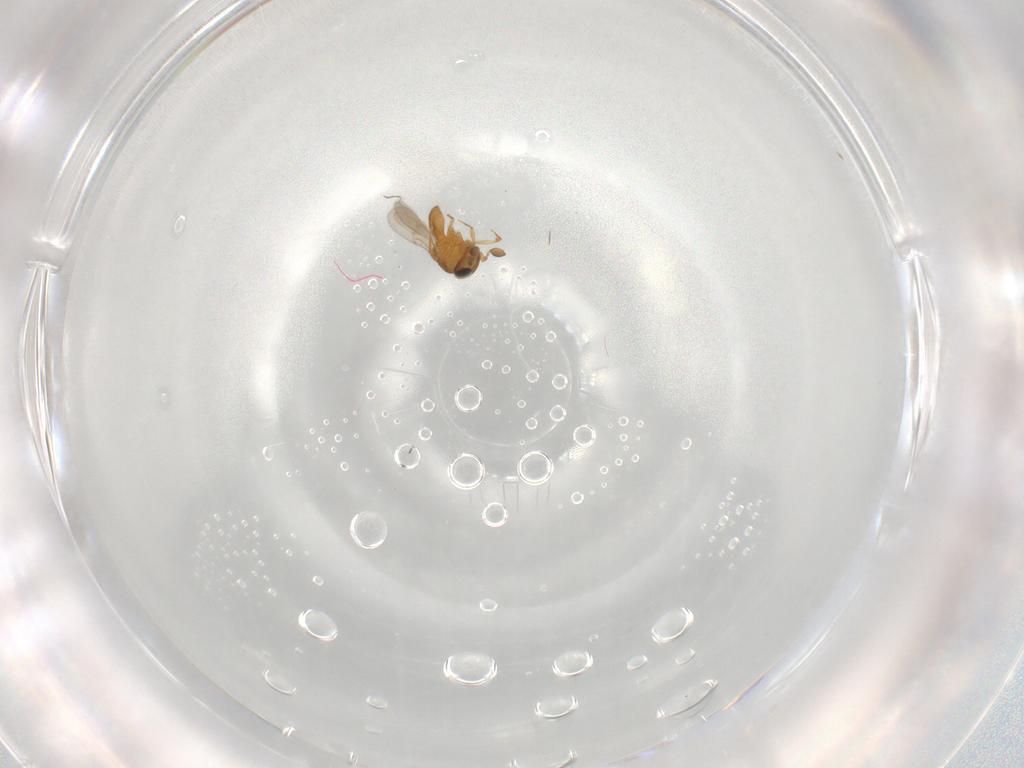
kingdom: Animalia
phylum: Arthropoda
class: Insecta
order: Hymenoptera
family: Scelionidae
